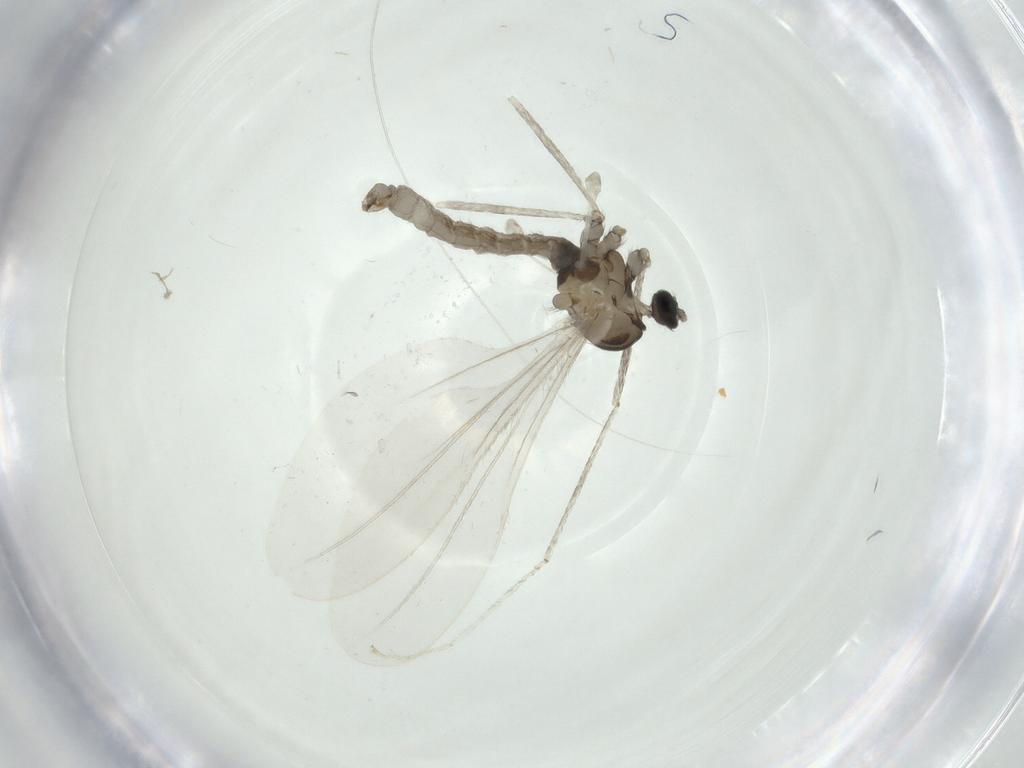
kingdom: Animalia
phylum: Arthropoda
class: Insecta
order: Diptera
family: Cecidomyiidae
